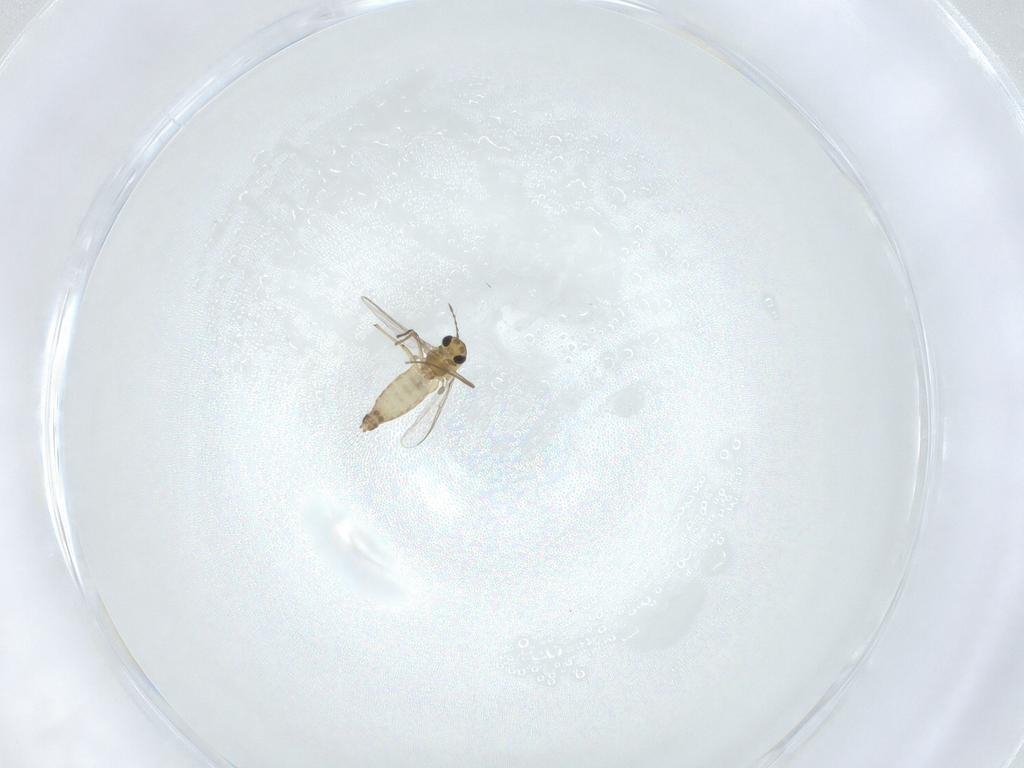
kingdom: Animalia
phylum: Arthropoda
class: Insecta
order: Diptera
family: Chironomidae
